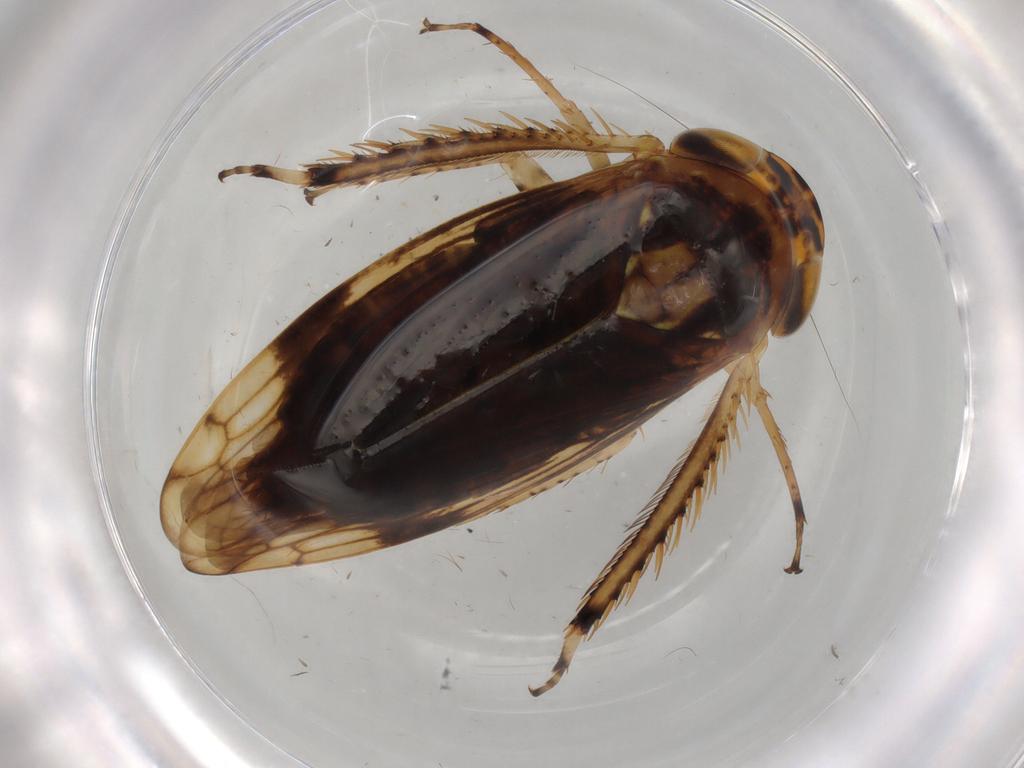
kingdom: Animalia
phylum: Arthropoda
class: Insecta
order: Hemiptera
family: Cicadellidae
